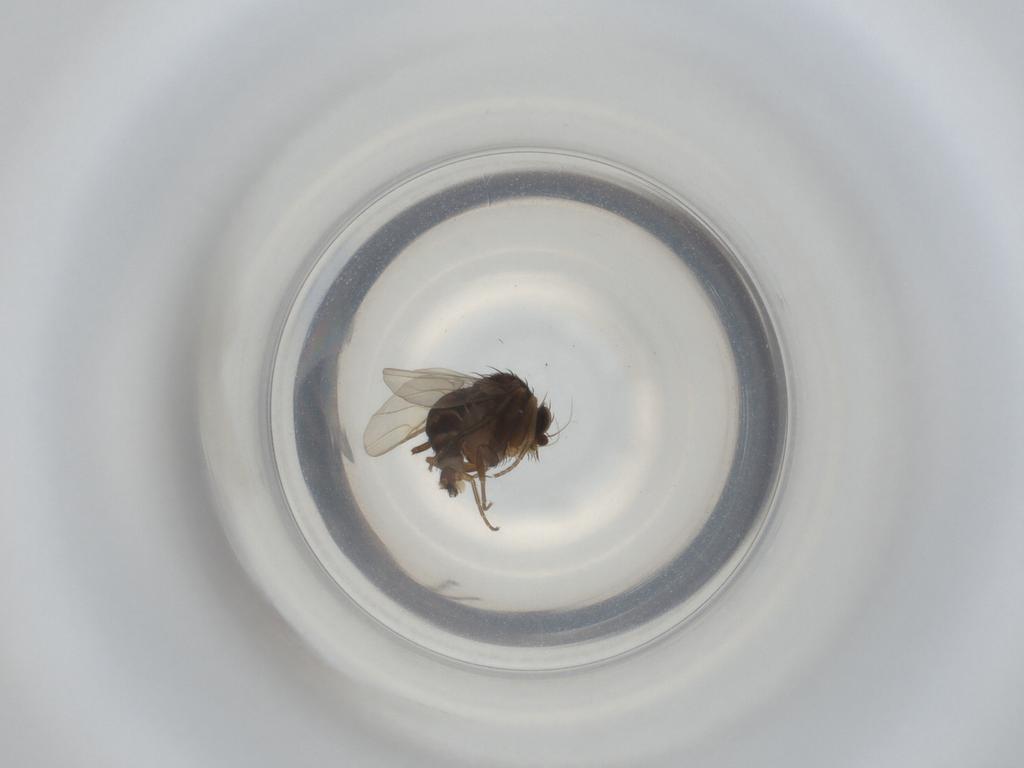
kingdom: Animalia
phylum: Arthropoda
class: Insecta
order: Diptera
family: Phoridae
